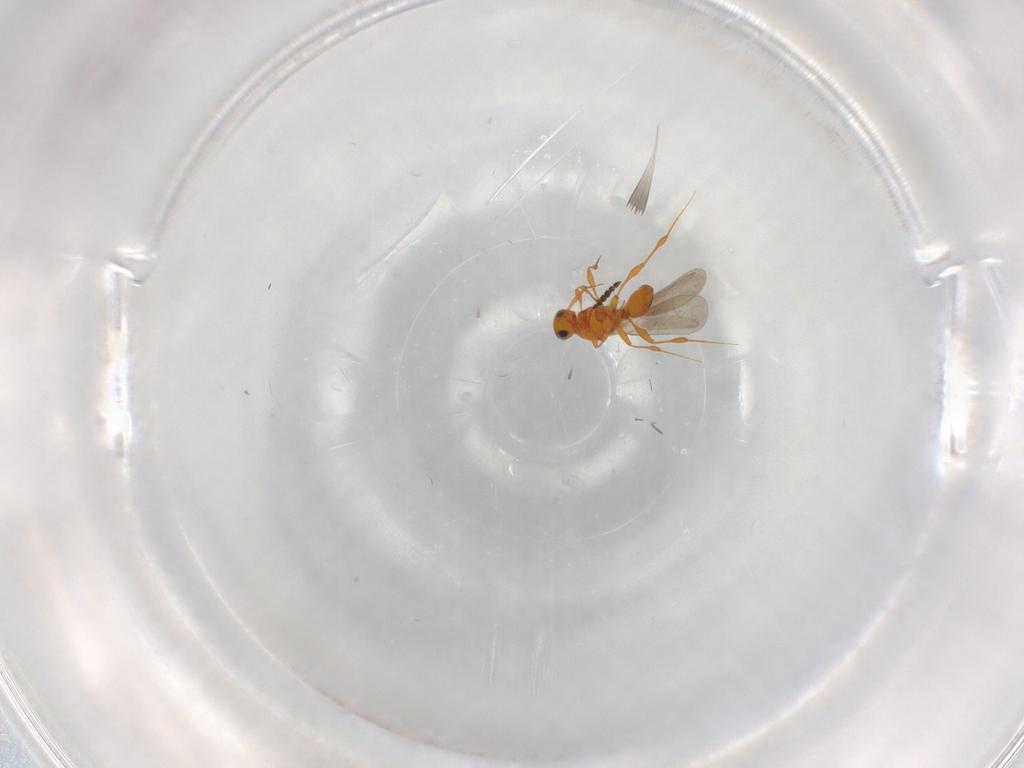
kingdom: Animalia
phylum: Arthropoda
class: Insecta
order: Hymenoptera
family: Platygastridae
